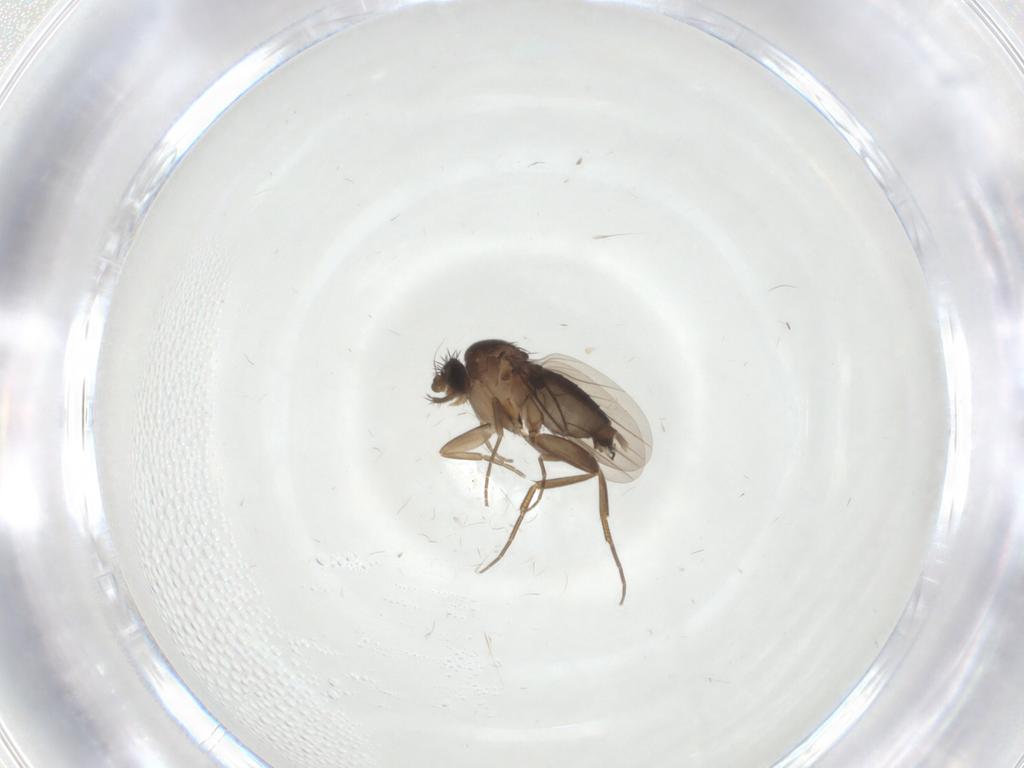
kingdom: Animalia
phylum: Arthropoda
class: Insecta
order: Diptera
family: Phoridae
